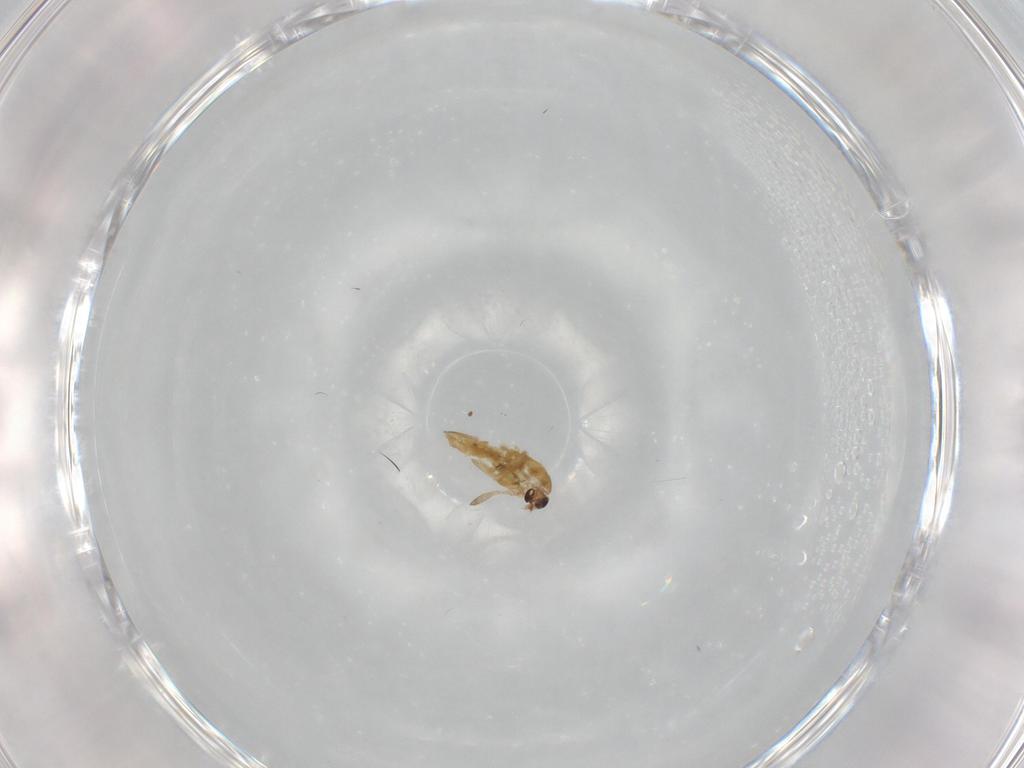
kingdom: Animalia
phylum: Arthropoda
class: Insecta
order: Diptera
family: Chironomidae
